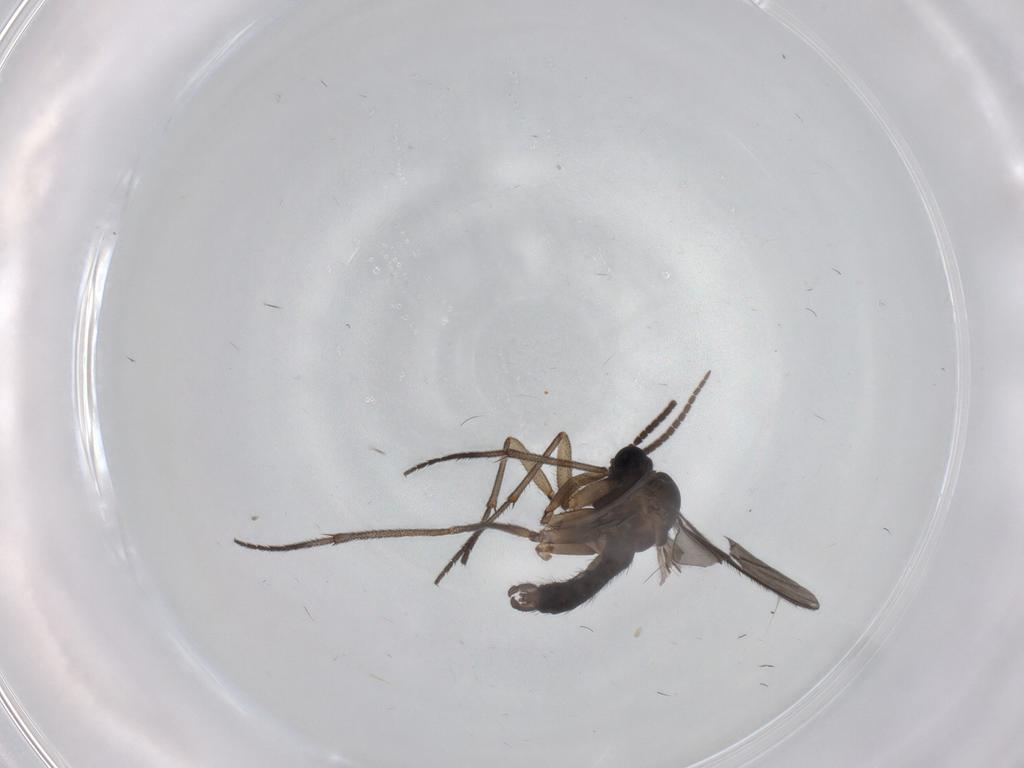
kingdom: Animalia
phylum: Arthropoda
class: Insecta
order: Diptera
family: Sciaridae
